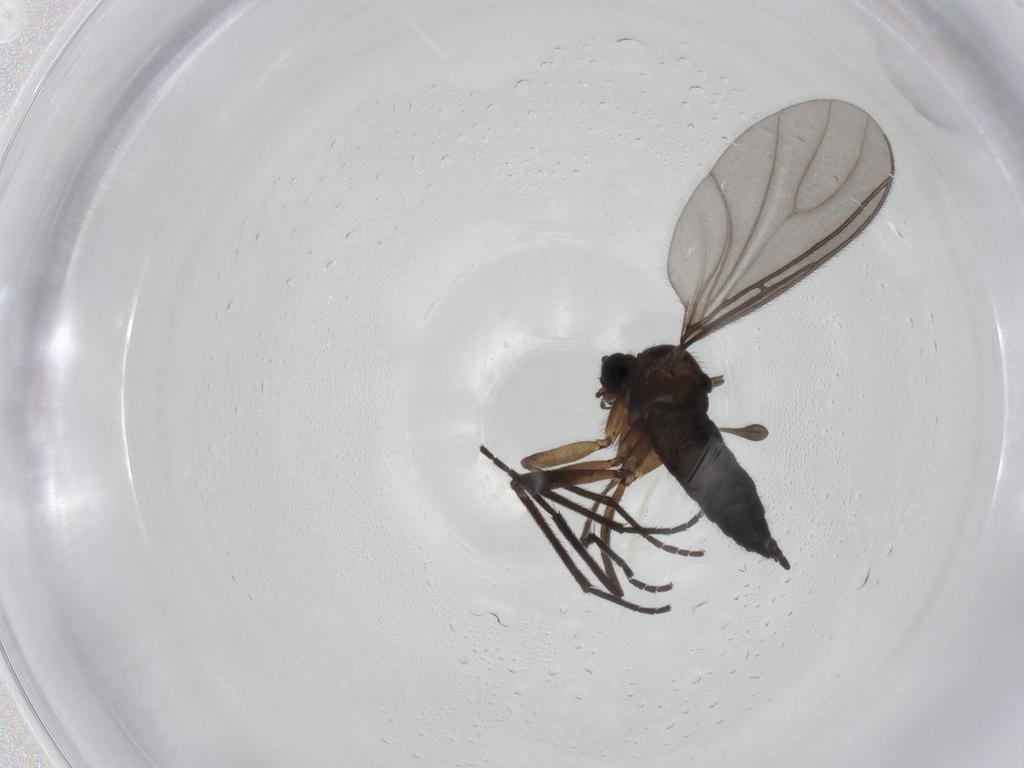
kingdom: Animalia
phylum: Arthropoda
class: Insecta
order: Diptera
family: Sciaridae
